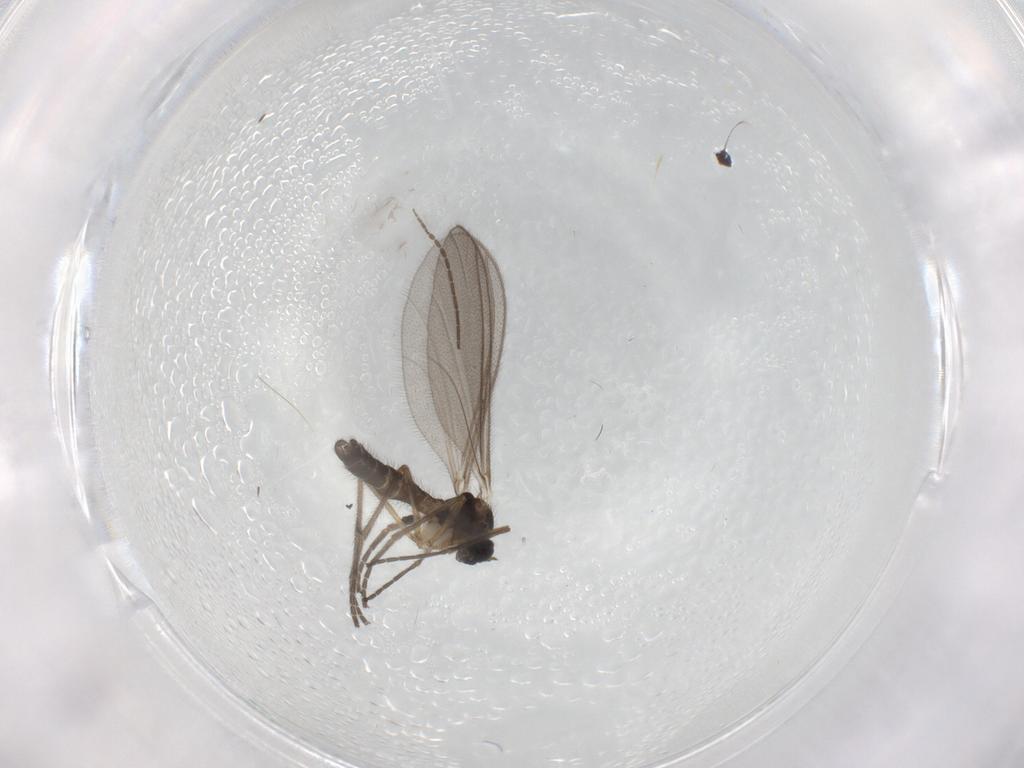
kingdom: Animalia
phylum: Arthropoda
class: Insecta
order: Diptera
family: Mycetophilidae
